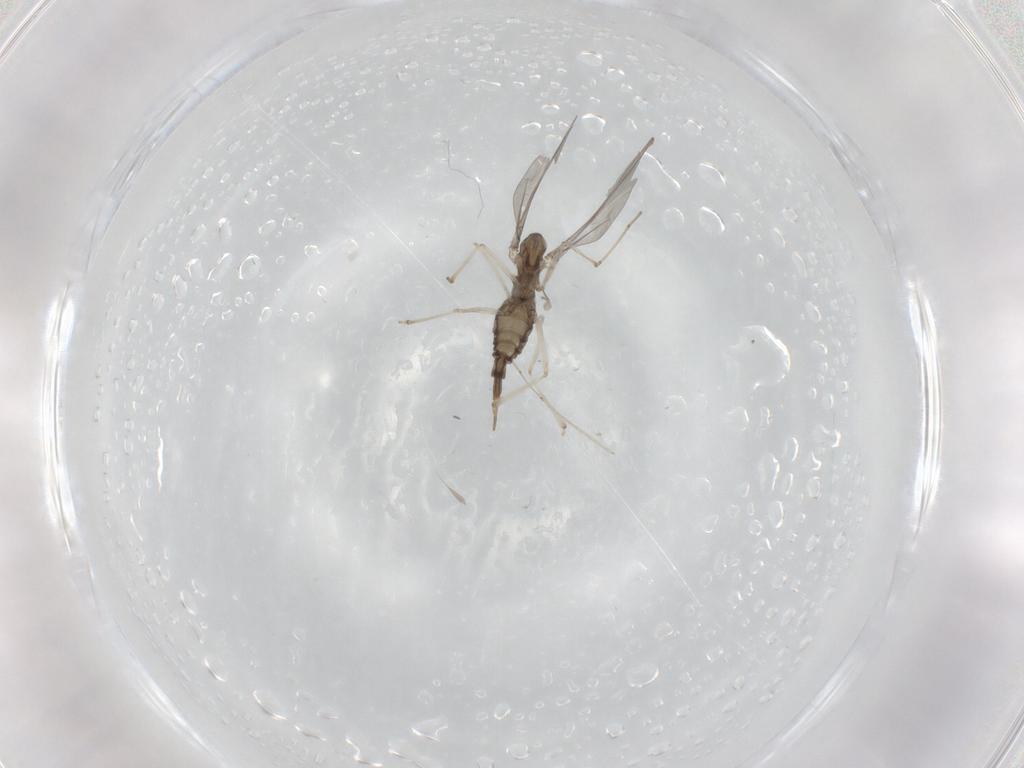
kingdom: Animalia
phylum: Arthropoda
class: Insecta
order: Diptera
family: Cecidomyiidae
